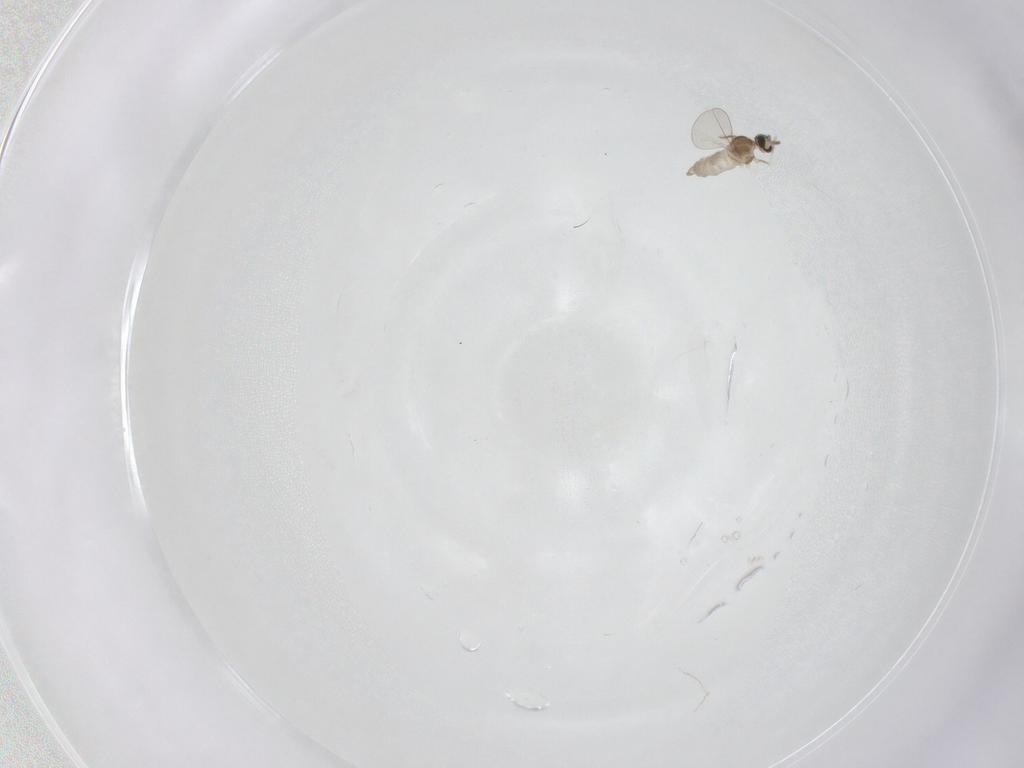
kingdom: Animalia
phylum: Arthropoda
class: Insecta
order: Diptera
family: Cecidomyiidae
